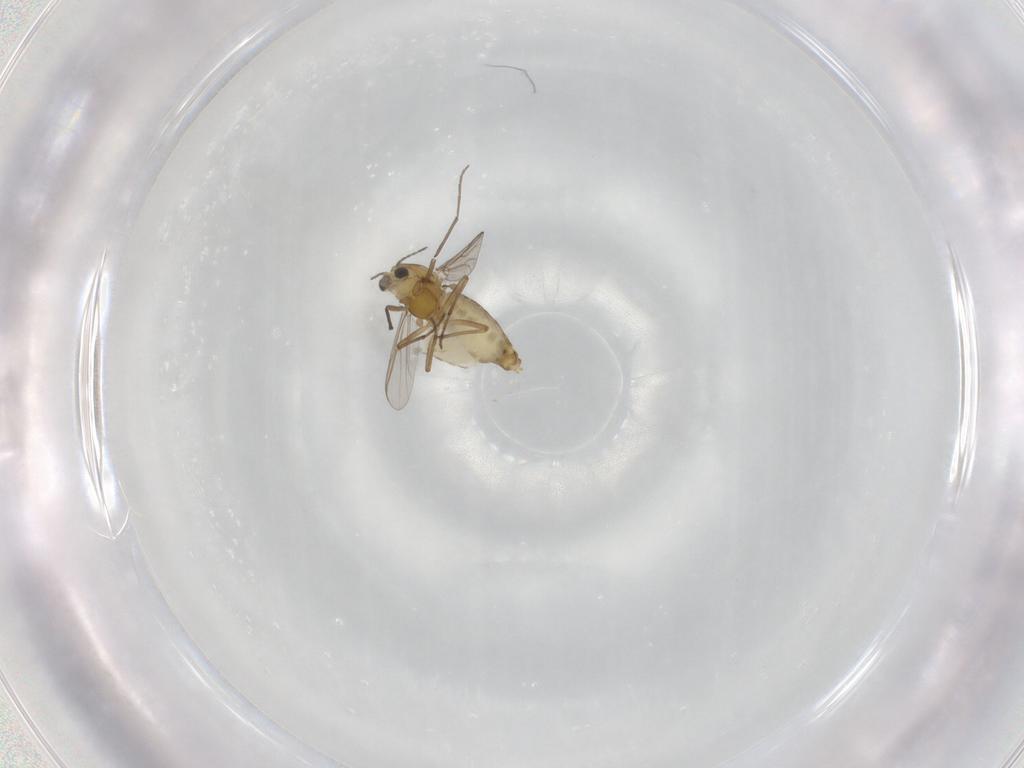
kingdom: Animalia
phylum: Arthropoda
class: Insecta
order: Diptera
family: Chironomidae
